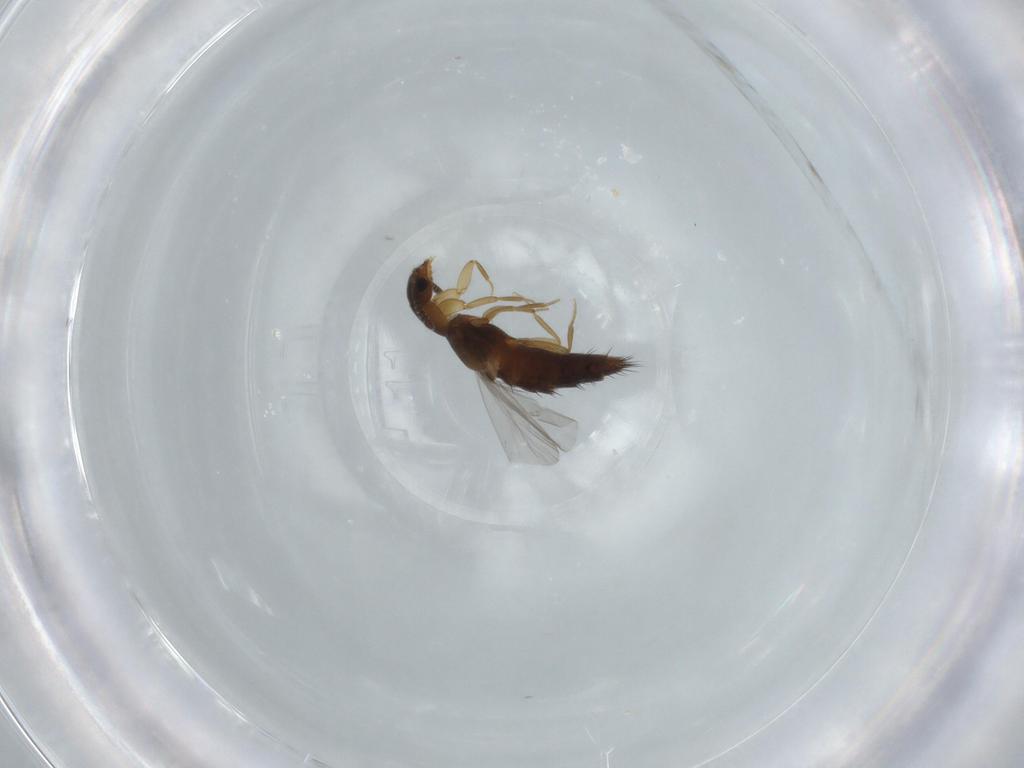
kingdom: Animalia
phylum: Arthropoda
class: Insecta
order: Coleoptera
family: Staphylinidae
